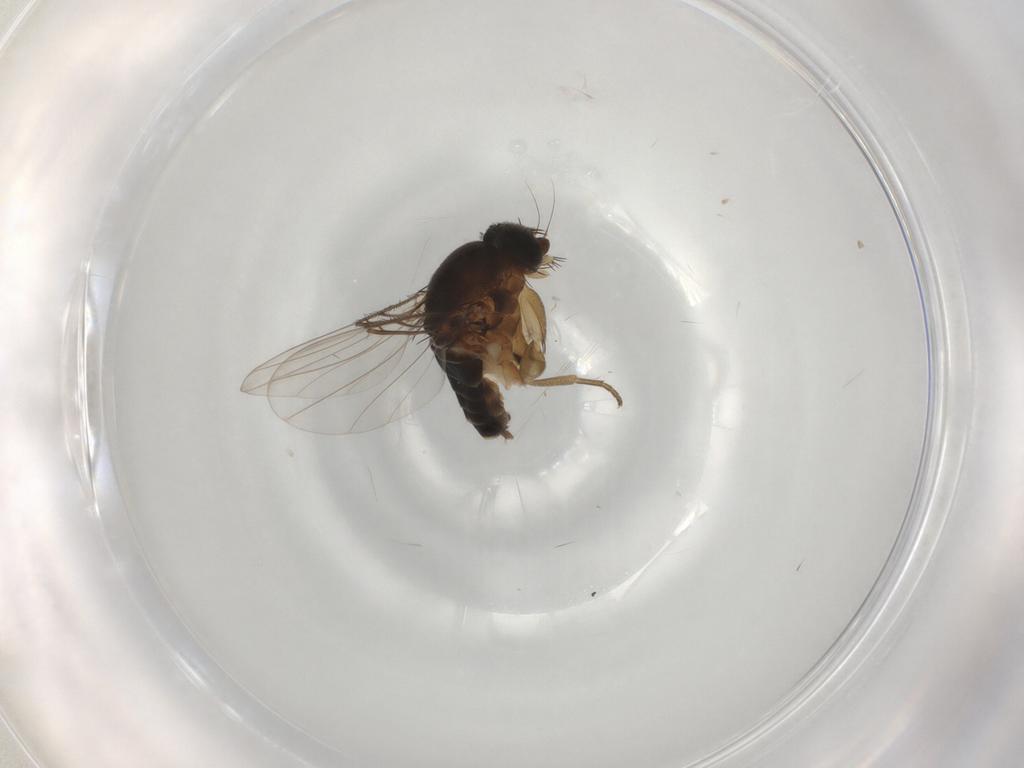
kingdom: Animalia
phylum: Arthropoda
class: Insecta
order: Diptera
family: Phoridae
